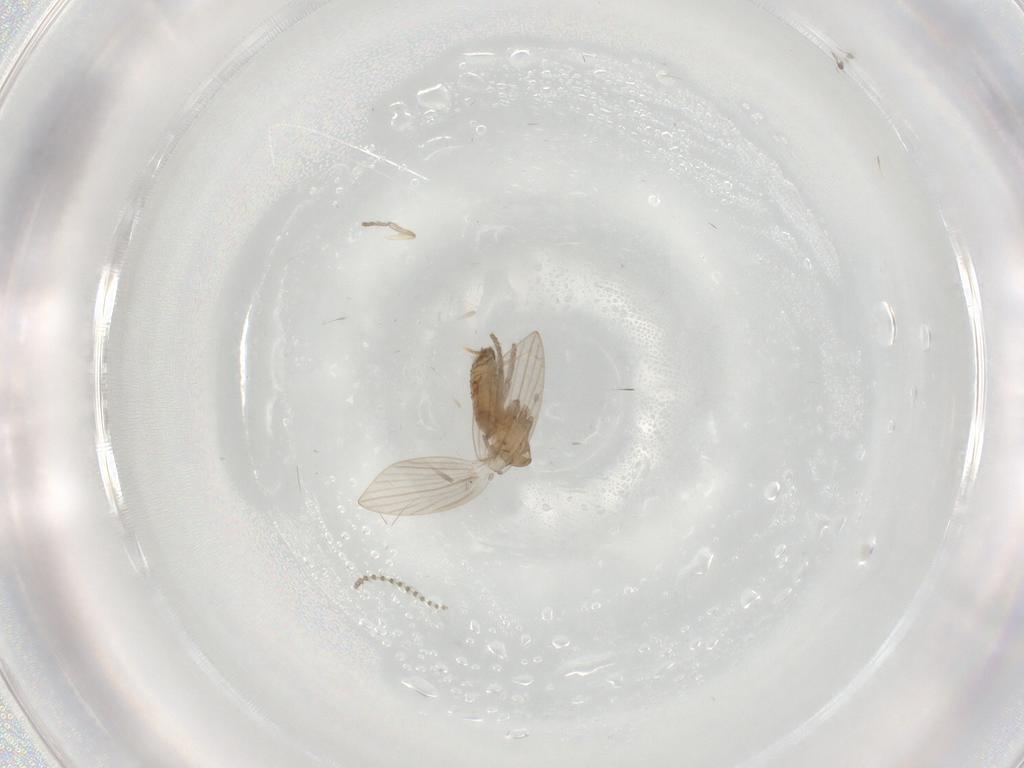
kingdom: Animalia
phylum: Arthropoda
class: Insecta
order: Diptera
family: Psychodidae
